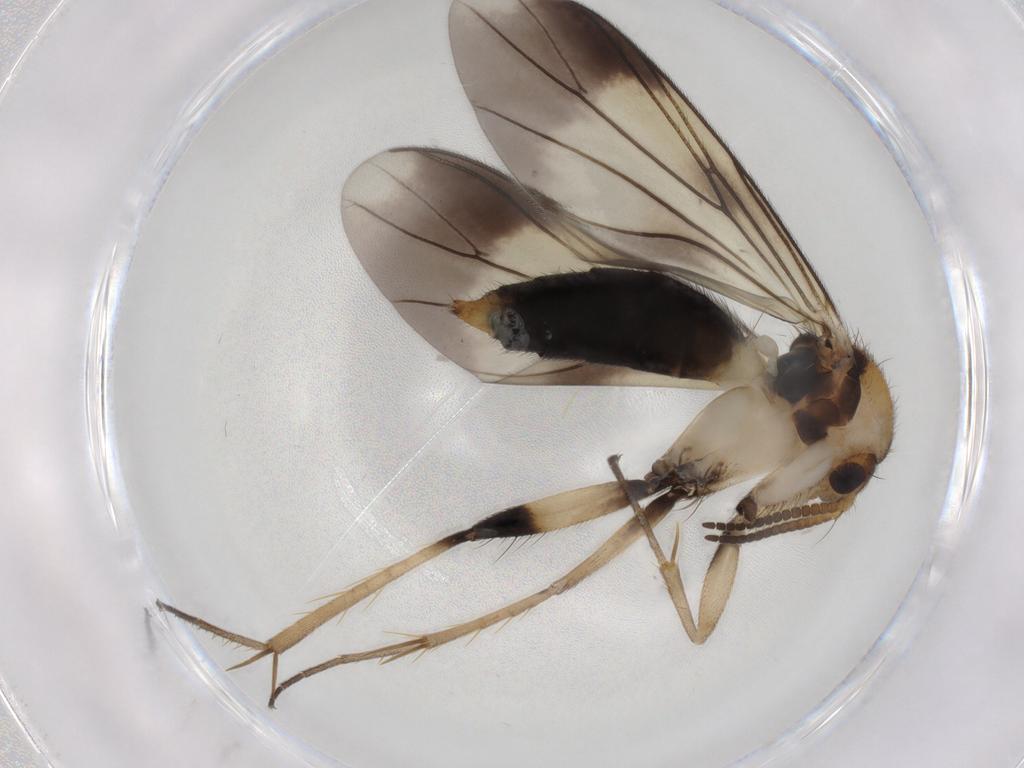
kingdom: Animalia
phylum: Arthropoda
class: Insecta
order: Diptera
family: Mycetophilidae
